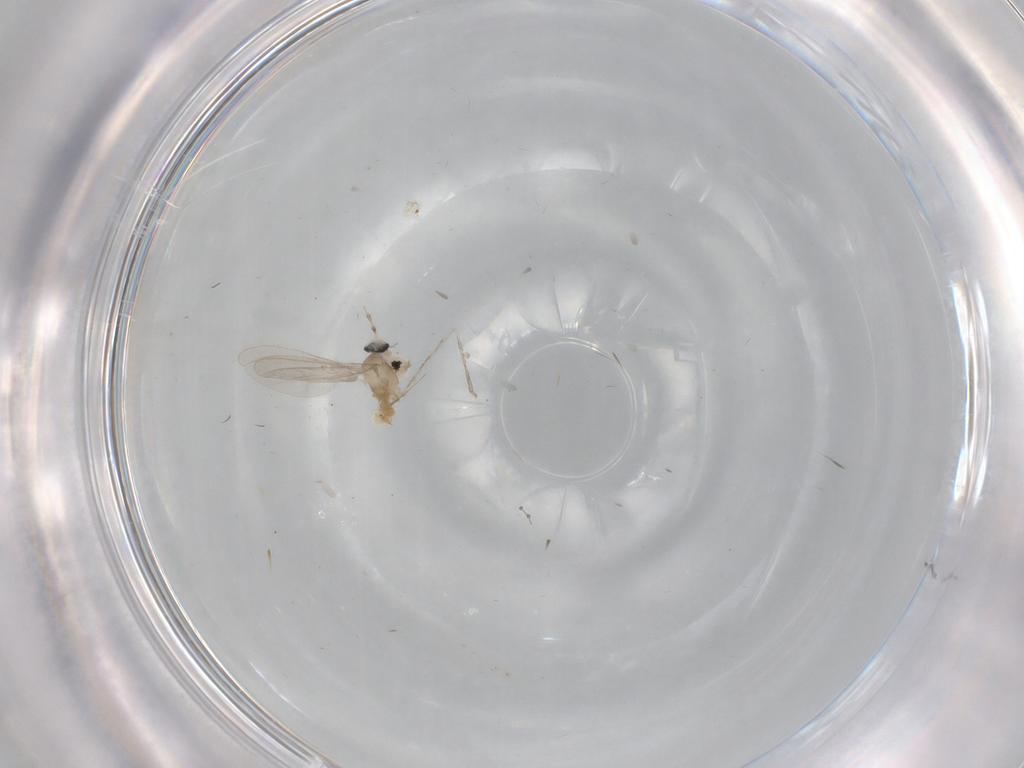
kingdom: Animalia
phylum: Arthropoda
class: Insecta
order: Diptera
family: Chironomidae
